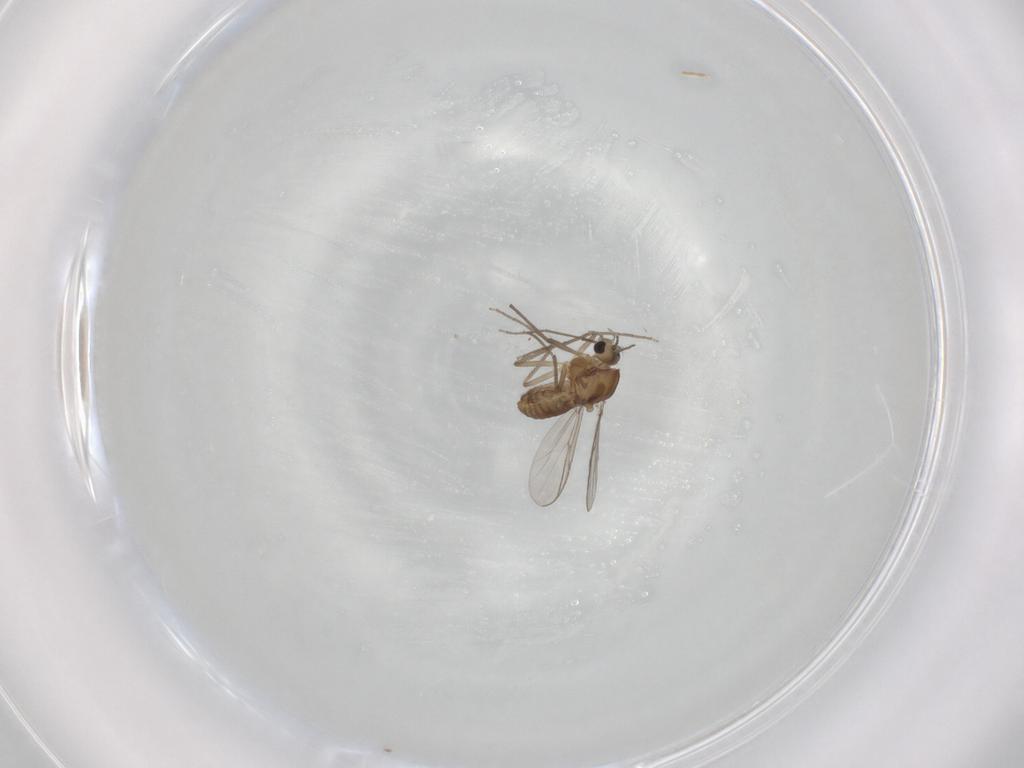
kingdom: Animalia
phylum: Arthropoda
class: Insecta
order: Diptera
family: Chironomidae
